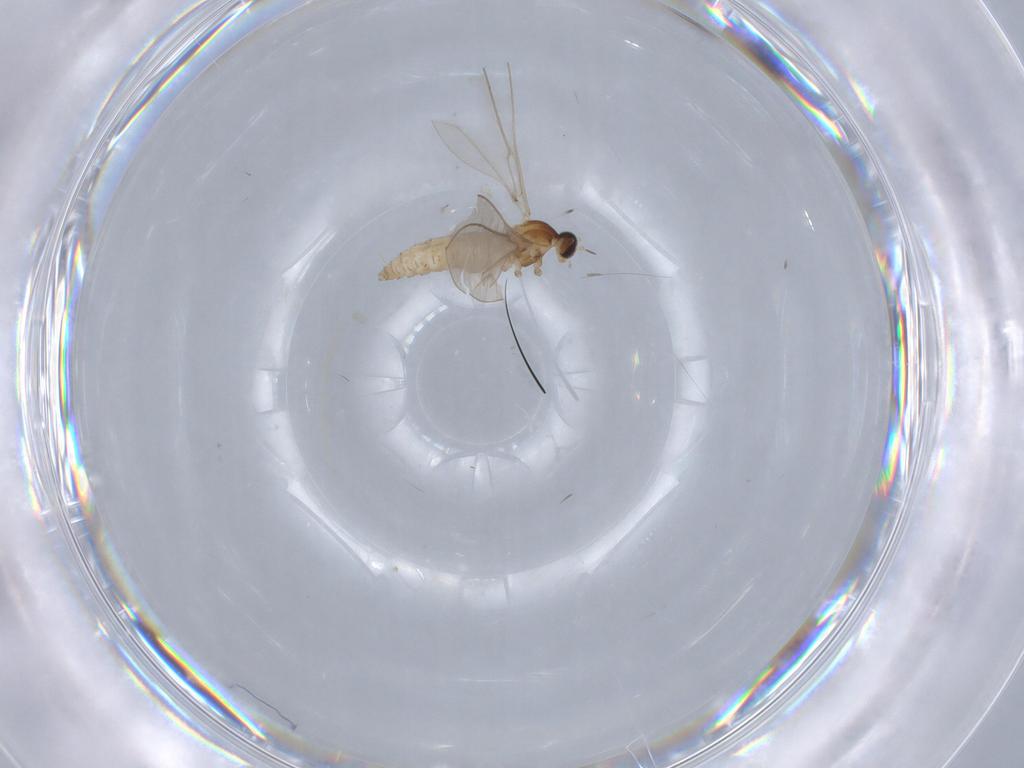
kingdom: Animalia
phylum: Arthropoda
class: Insecta
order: Diptera
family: Cecidomyiidae
